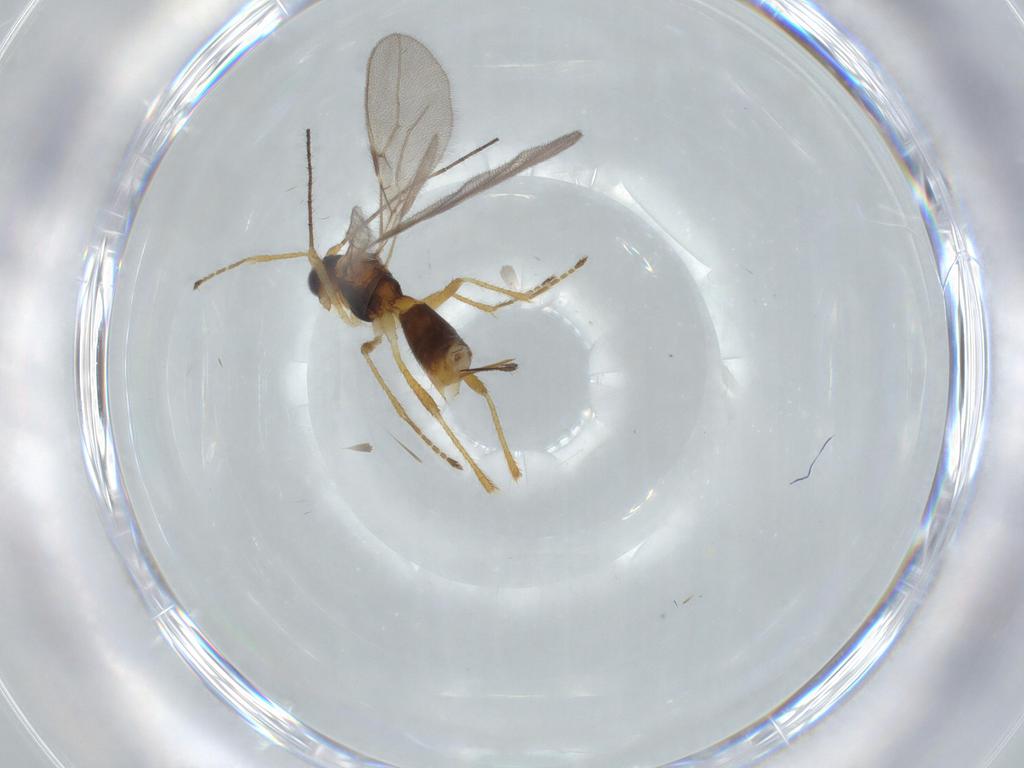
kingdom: Animalia
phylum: Arthropoda
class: Insecta
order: Hymenoptera
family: Braconidae
